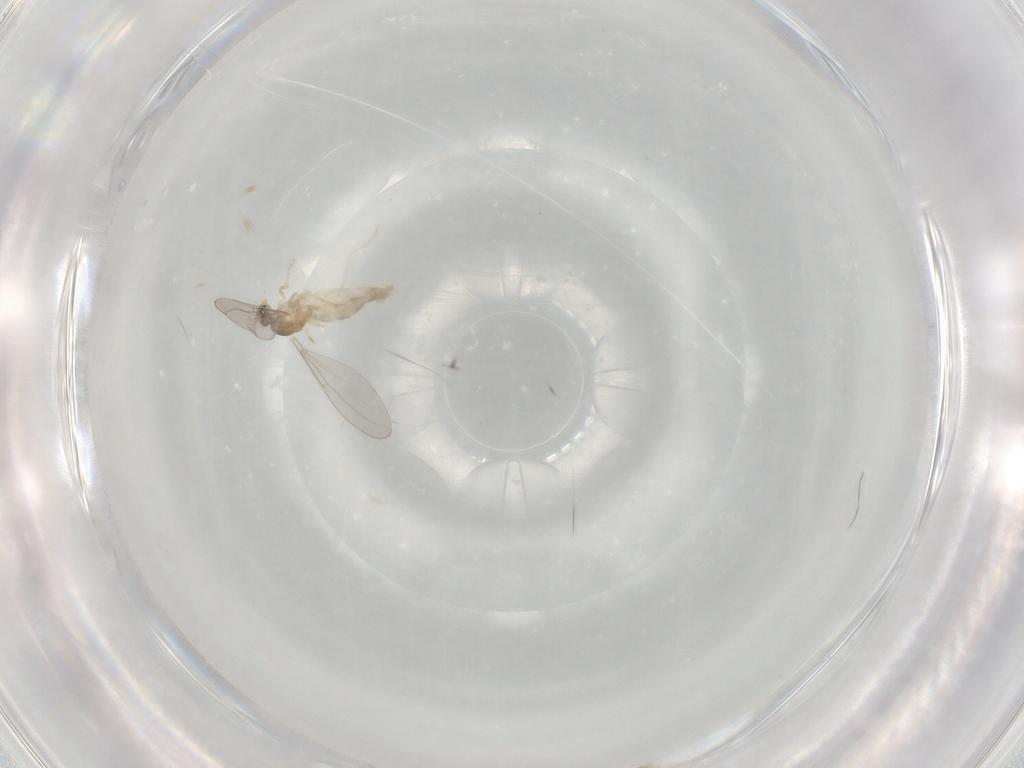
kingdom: Animalia
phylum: Arthropoda
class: Insecta
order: Diptera
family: Cecidomyiidae
